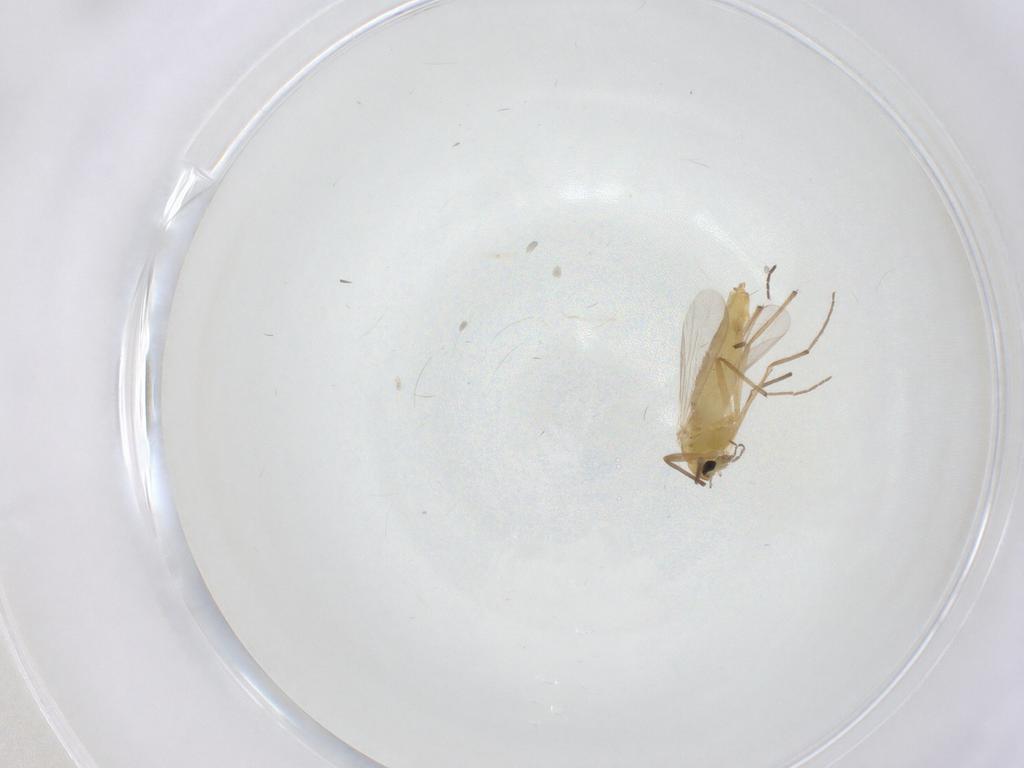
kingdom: Animalia
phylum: Arthropoda
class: Insecta
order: Diptera
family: Chironomidae
